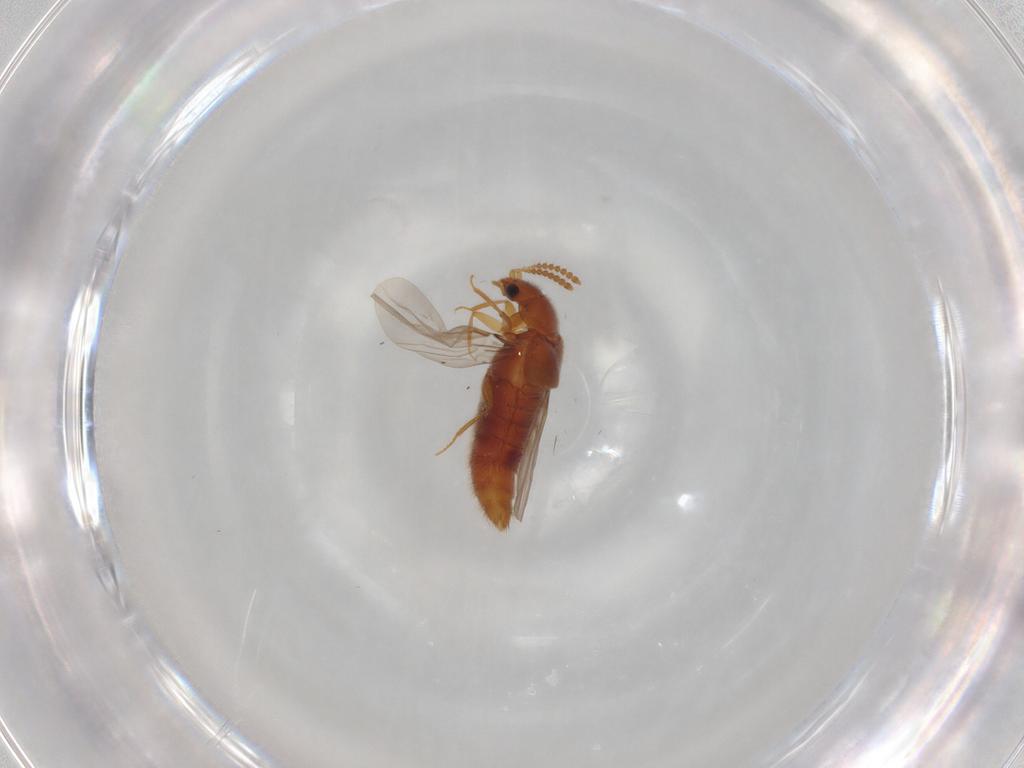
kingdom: Animalia
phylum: Arthropoda
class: Insecta
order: Coleoptera
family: Staphylinidae
